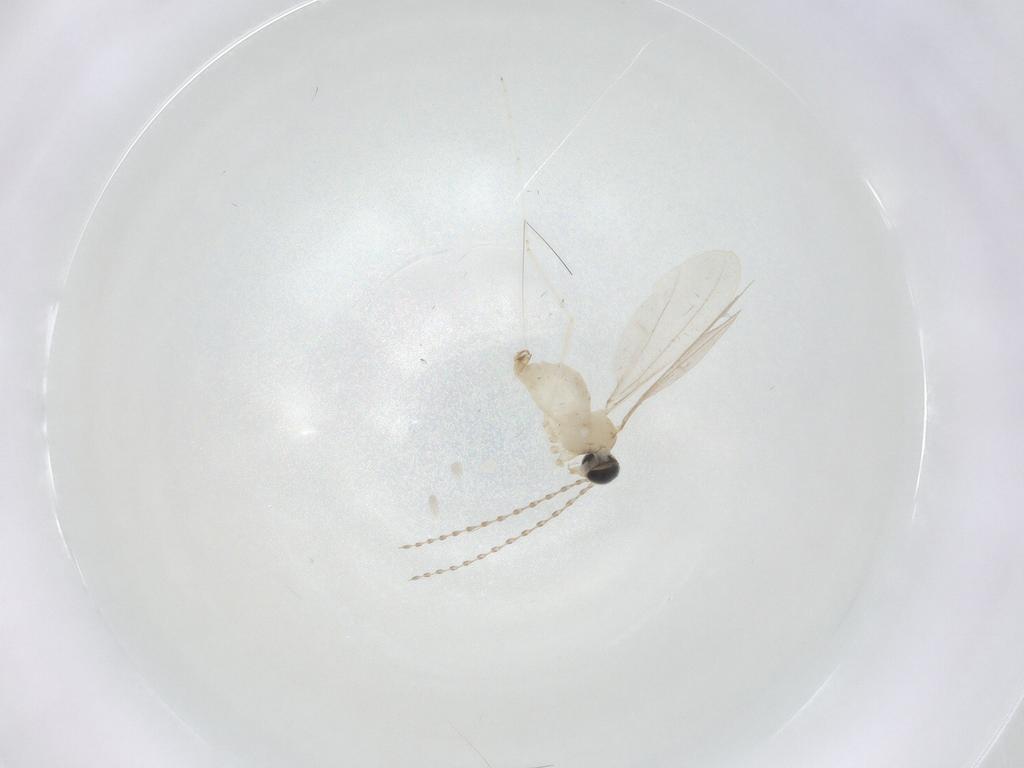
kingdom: Animalia
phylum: Arthropoda
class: Insecta
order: Diptera
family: Cecidomyiidae
